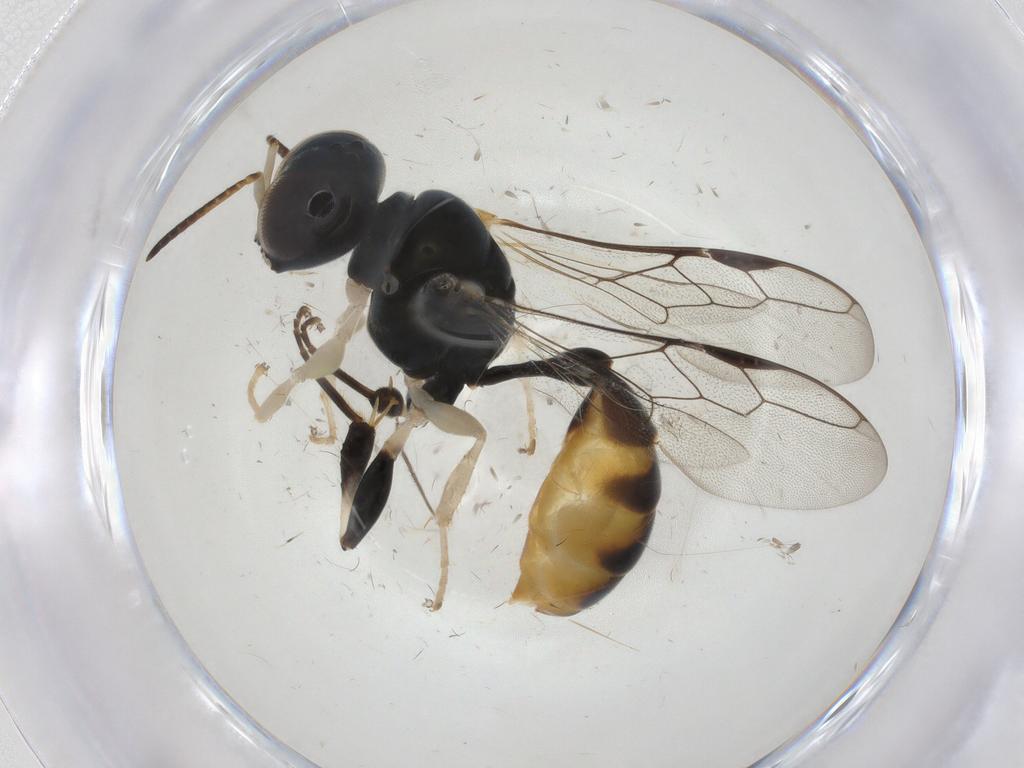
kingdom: Animalia
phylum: Arthropoda
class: Insecta
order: Hymenoptera
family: Crabronidae
